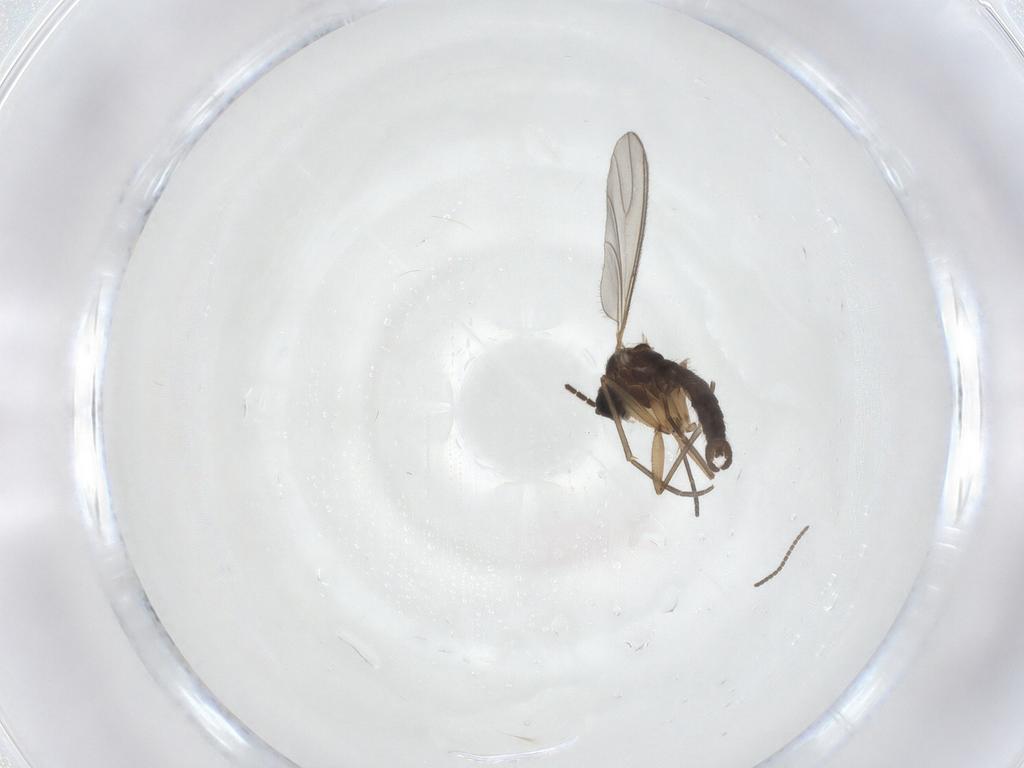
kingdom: Animalia
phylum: Arthropoda
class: Insecta
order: Diptera
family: Sciaridae
